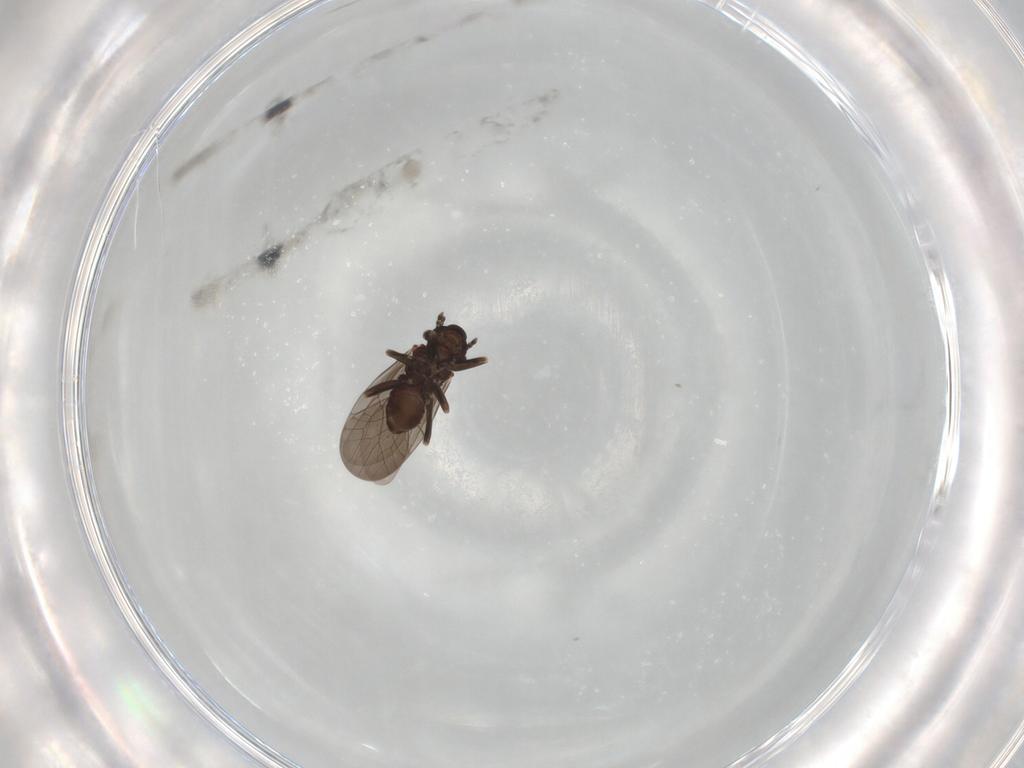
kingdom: Animalia
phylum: Arthropoda
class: Insecta
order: Psocodea
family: Lepidopsocidae
